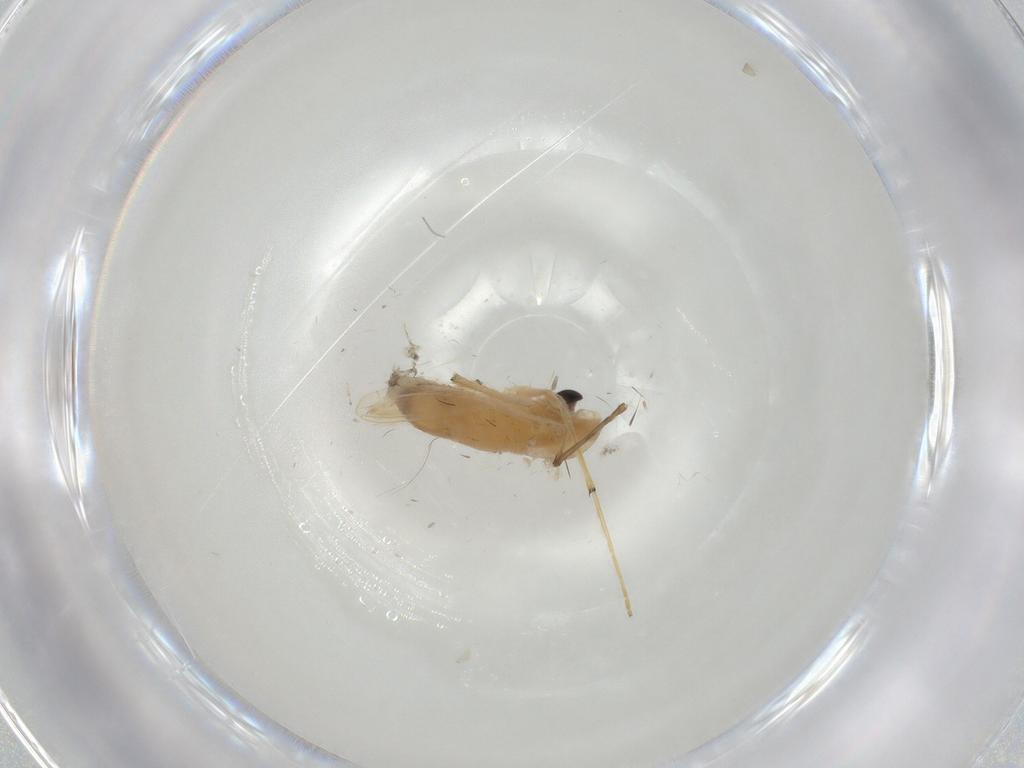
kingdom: Animalia
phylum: Arthropoda
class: Insecta
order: Diptera
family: Chironomidae
